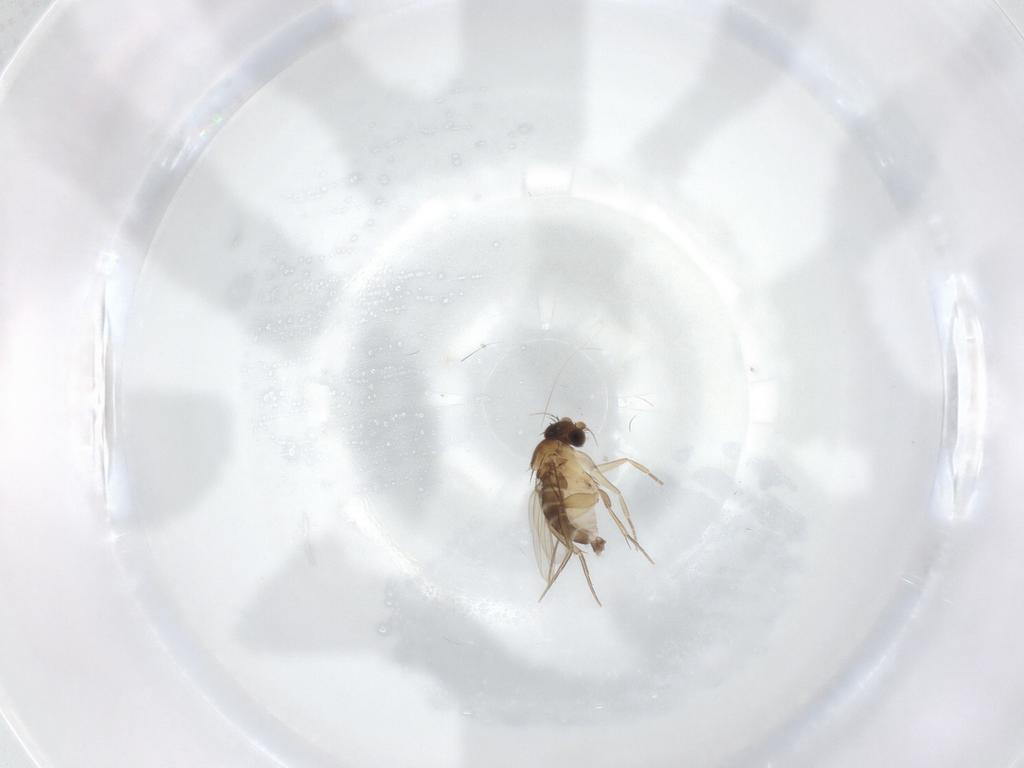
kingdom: Animalia
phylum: Arthropoda
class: Insecta
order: Diptera
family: Phoridae
